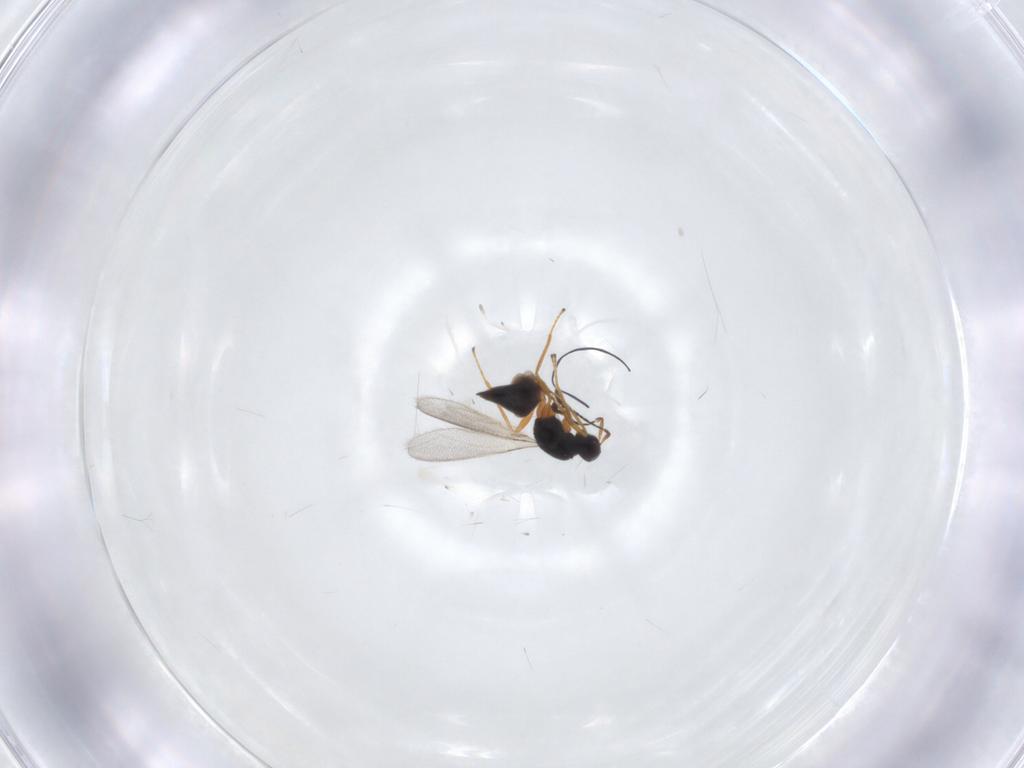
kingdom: Animalia
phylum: Arthropoda
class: Insecta
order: Hymenoptera
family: Mymaridae
